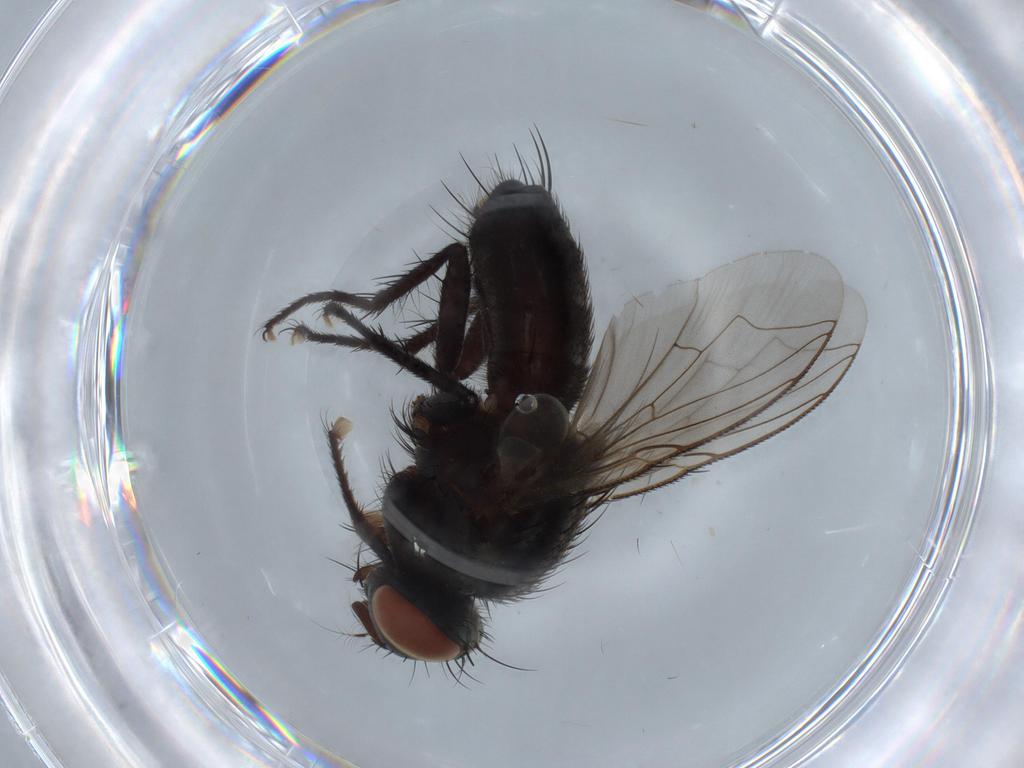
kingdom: Animalia
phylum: Arthropoda
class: Insecta
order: Diptera
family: Sarcophagidae
